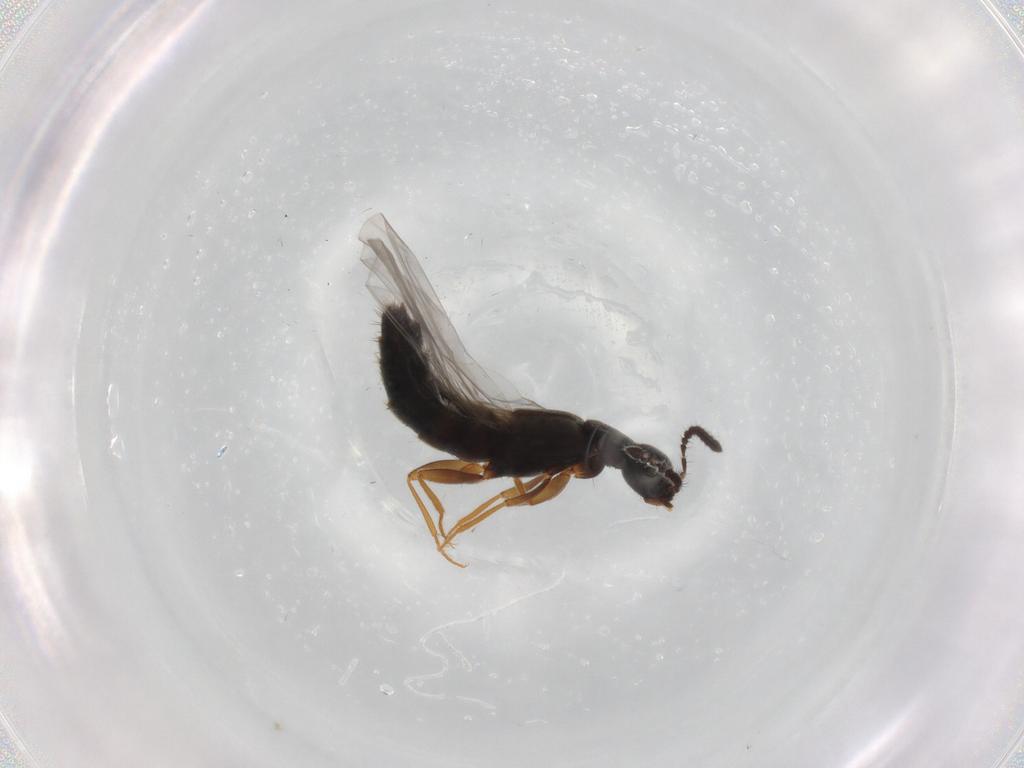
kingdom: Animalia
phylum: Arthropoda
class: Insecta
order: Coleoptera
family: Staphylinidae
